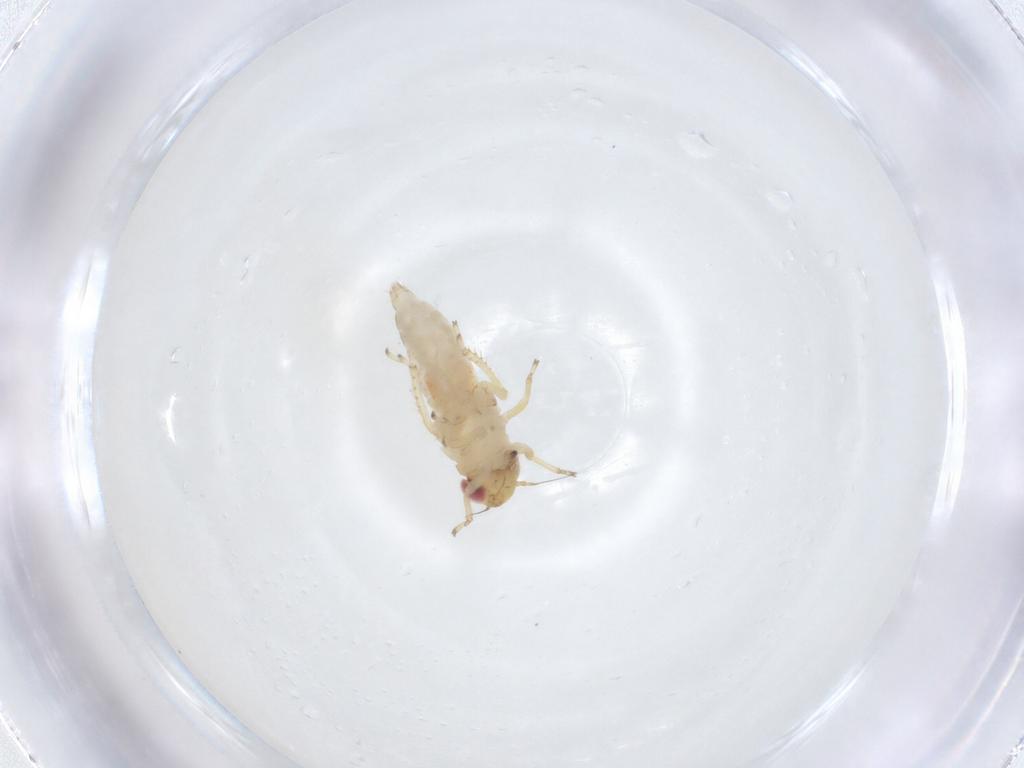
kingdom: Animalia
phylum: Arthropoda
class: Insecta
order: Hemiptera
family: Cicadellidae
